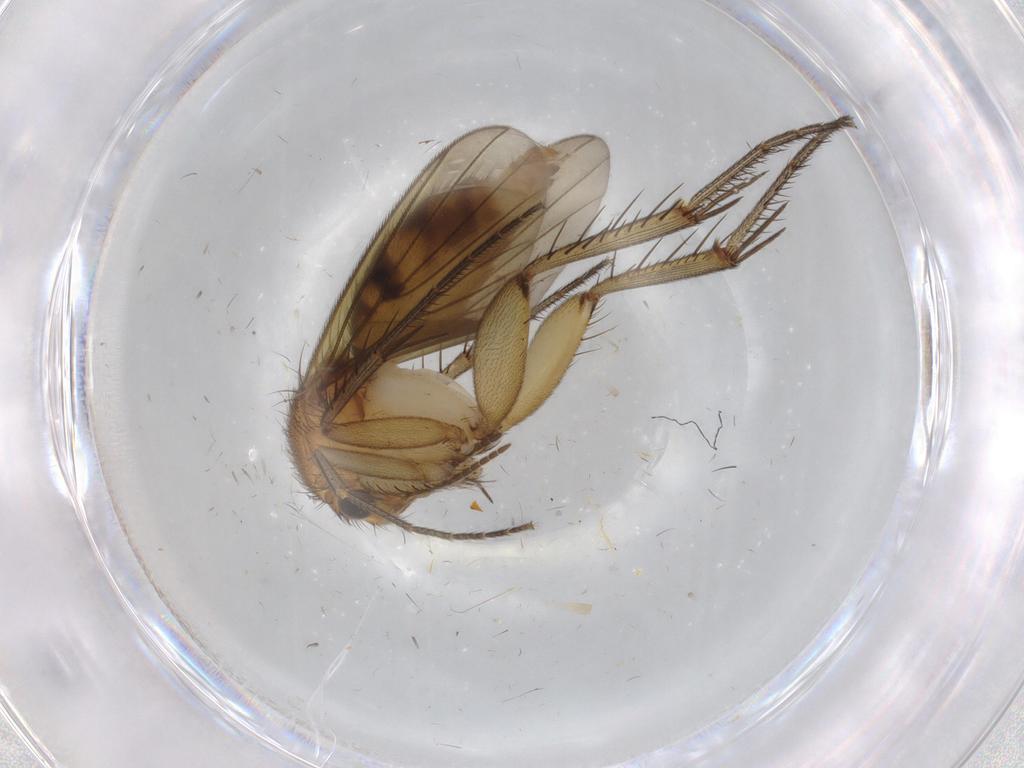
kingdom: Animalia
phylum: Arthropoda
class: Insecta
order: Diptera
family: Mycetophilidae
